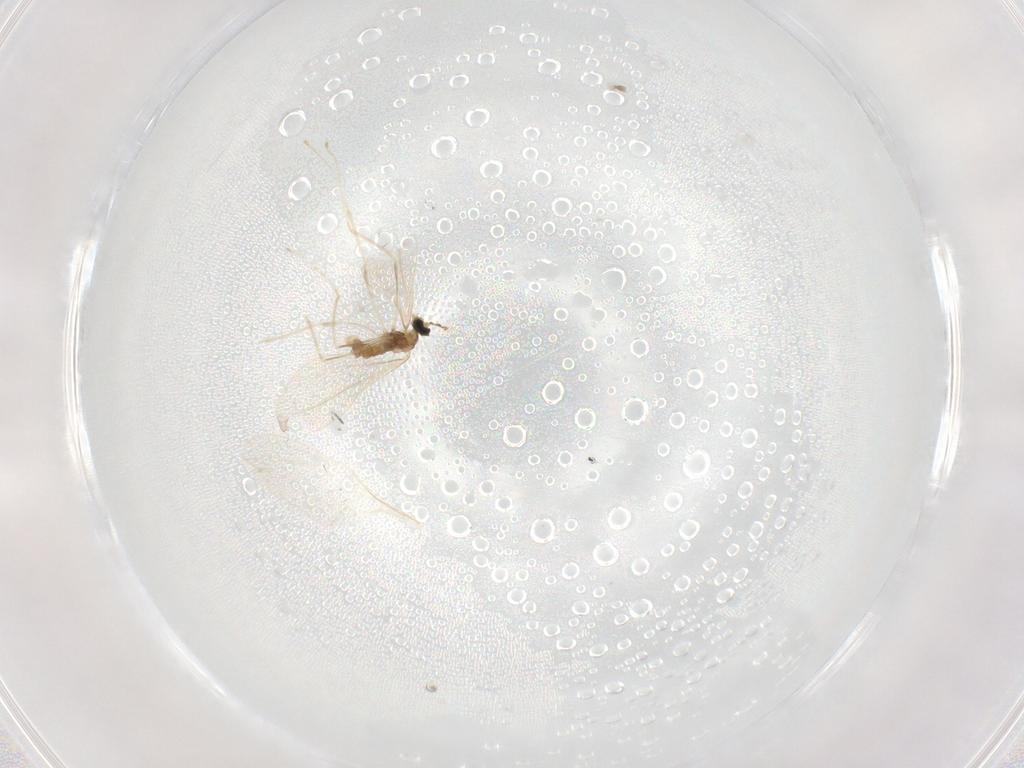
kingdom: Animalia
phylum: Arthropoda
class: Insecta
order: Diptera
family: Cecidomyiidae
